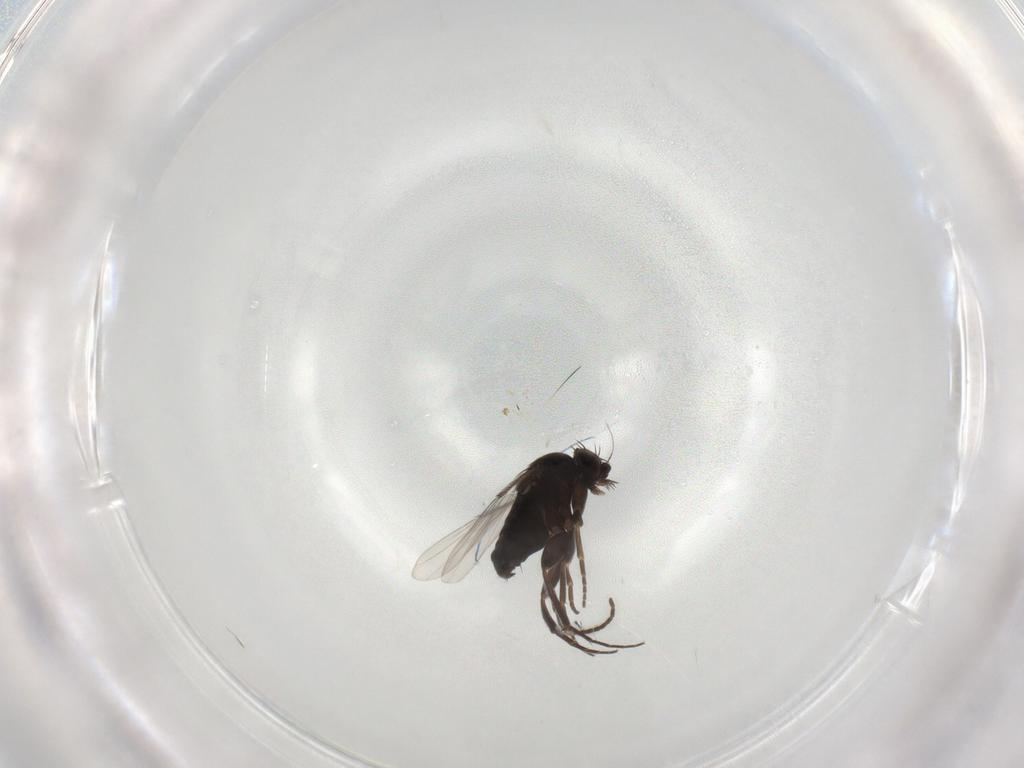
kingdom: Animalia
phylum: Arthropoda
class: Insecta
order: Diptera
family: Phoridae
